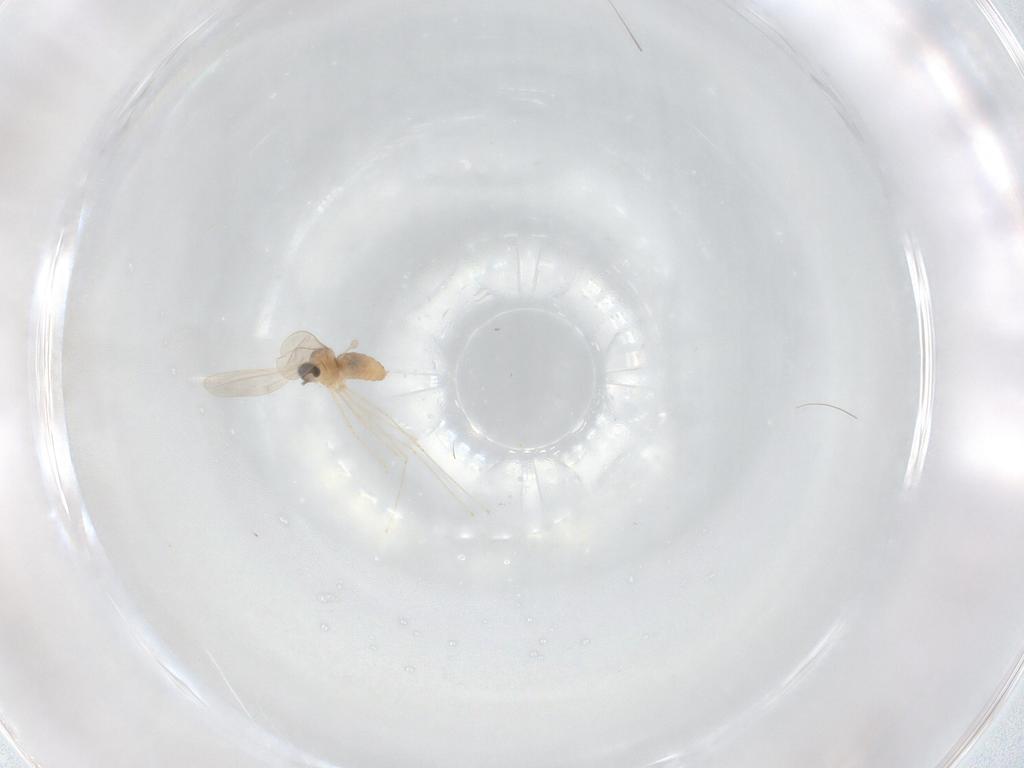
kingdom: Animalia
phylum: Arthropoda
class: Insecta
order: Diptera
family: Cecidomyiidae
